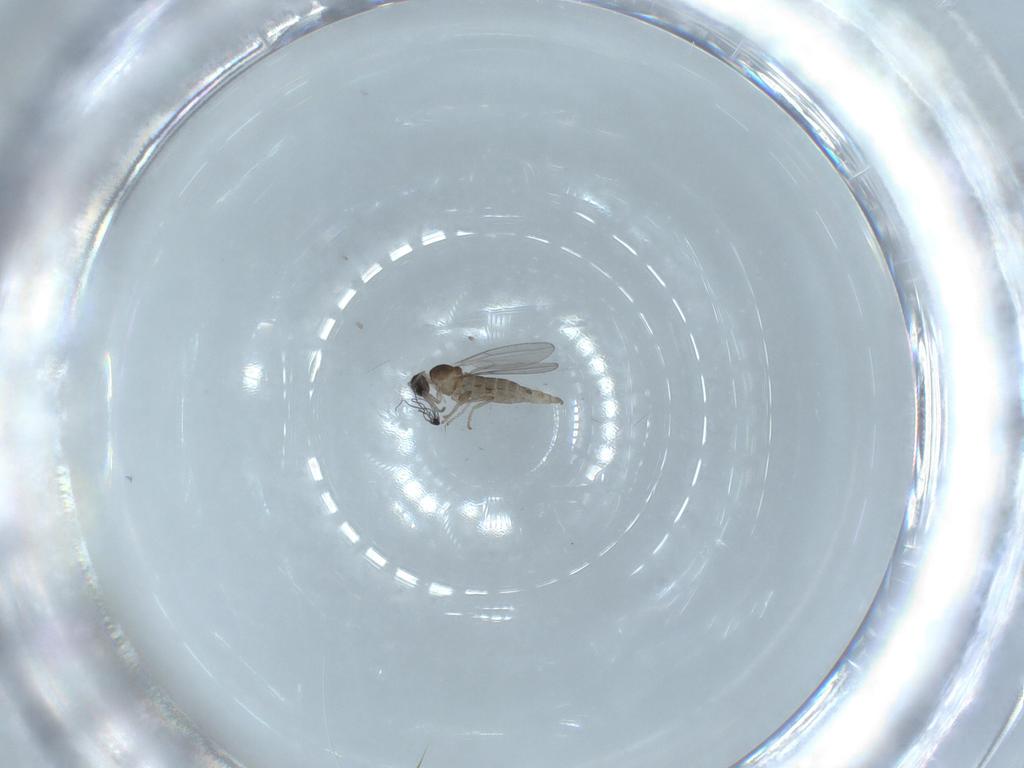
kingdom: Animalia
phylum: Arthropoda
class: Insecta
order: Diptera
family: Cecidomyiidae
